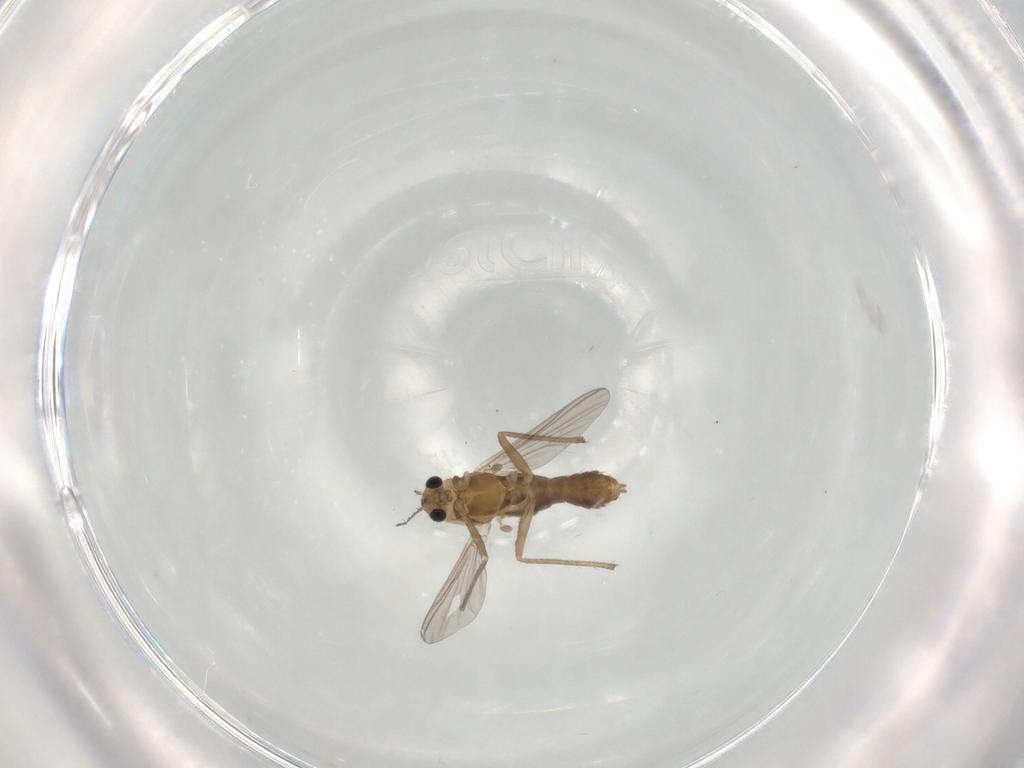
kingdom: Animalia
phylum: Arthropoda
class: Insecta
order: Diptera
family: Chironomidae
